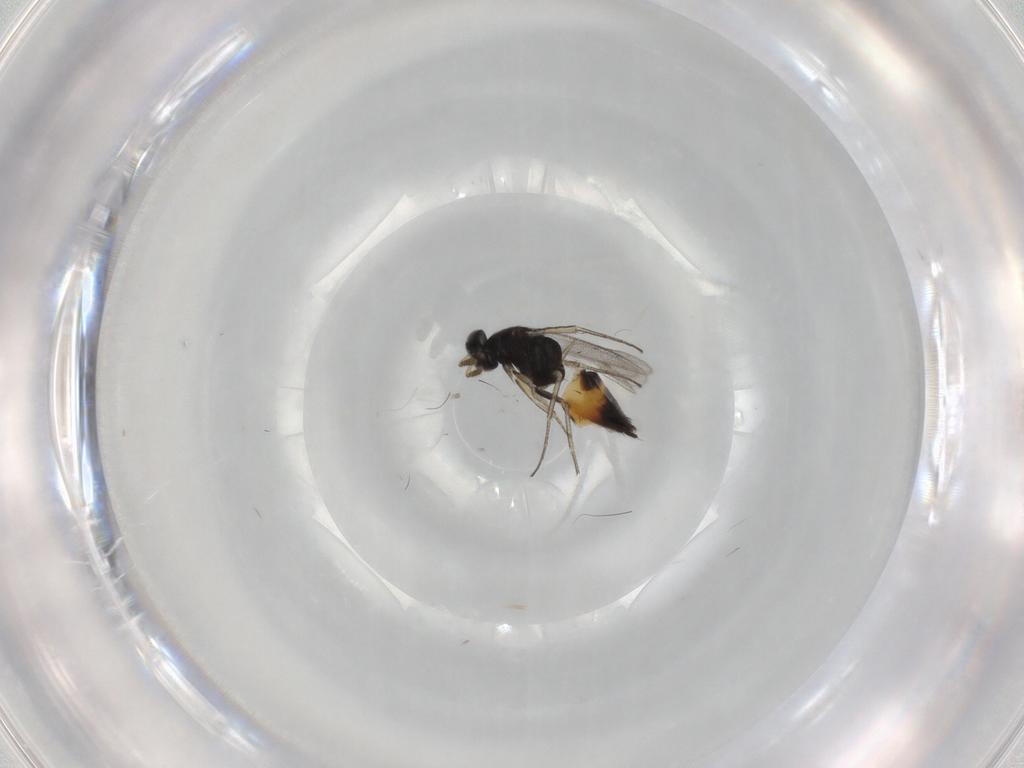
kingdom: Animalia
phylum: Arthropoda
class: Insecta
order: Hymenoptera
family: Eulophidae
